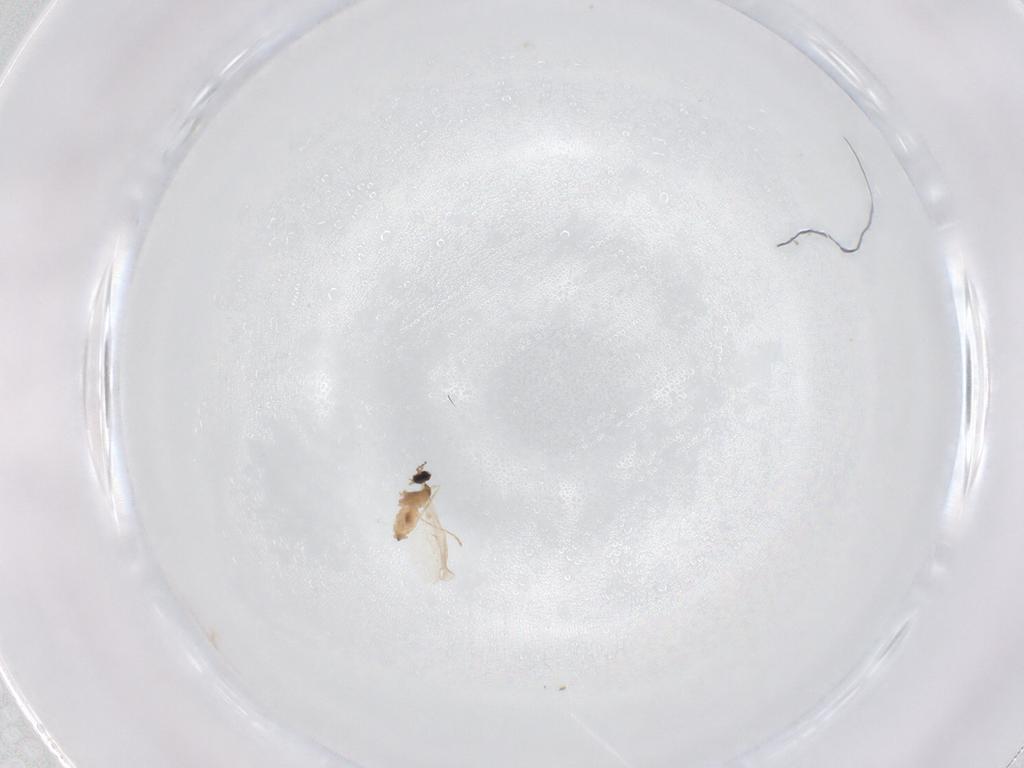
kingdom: Animalia
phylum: Arthropoda
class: Insecta
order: Diptera
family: Cecidomyiidae
